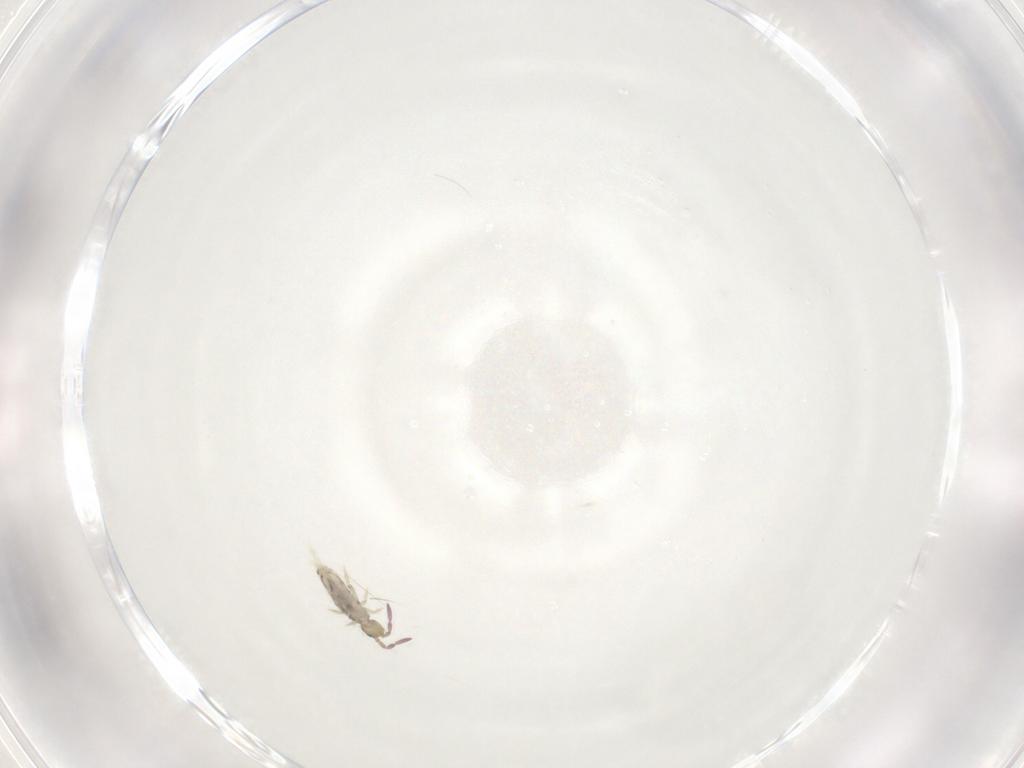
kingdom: Animalia
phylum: Arthropoda
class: Collembola
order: Entomobryomorpha
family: Entomobryidae
